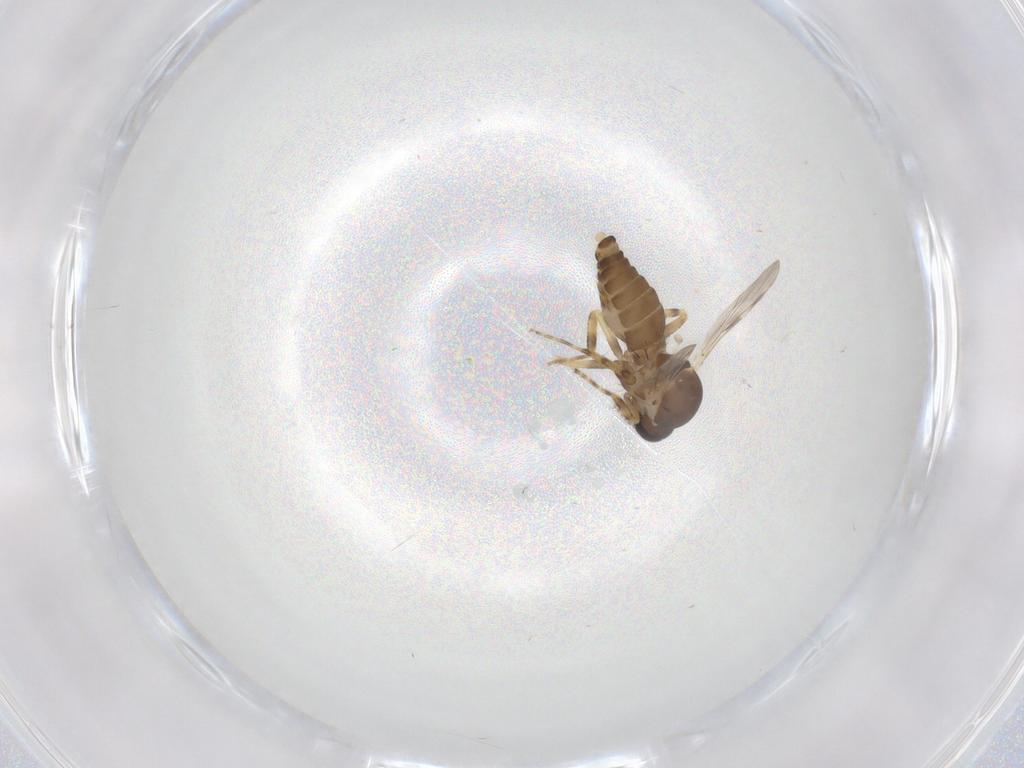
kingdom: Animalia
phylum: Arthropoda
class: Insecta
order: Diptera
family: Ceratopogonidae
